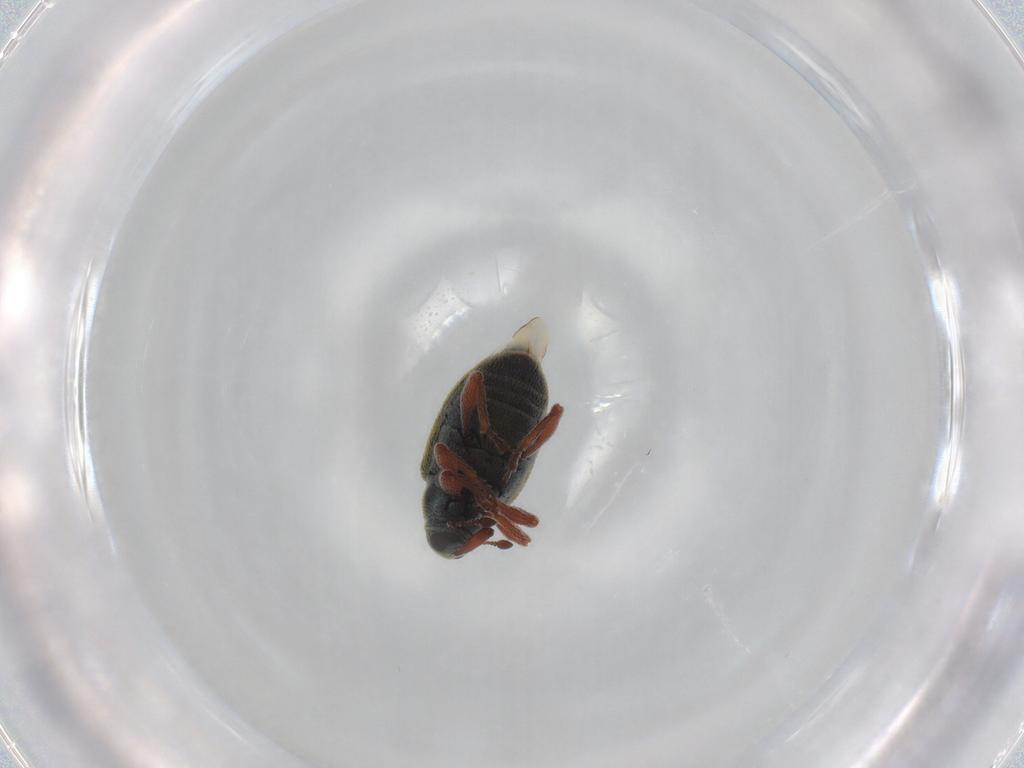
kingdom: Animalia
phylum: Arthropoda
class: Insecta
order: Coleoptera
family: Curculionidae
